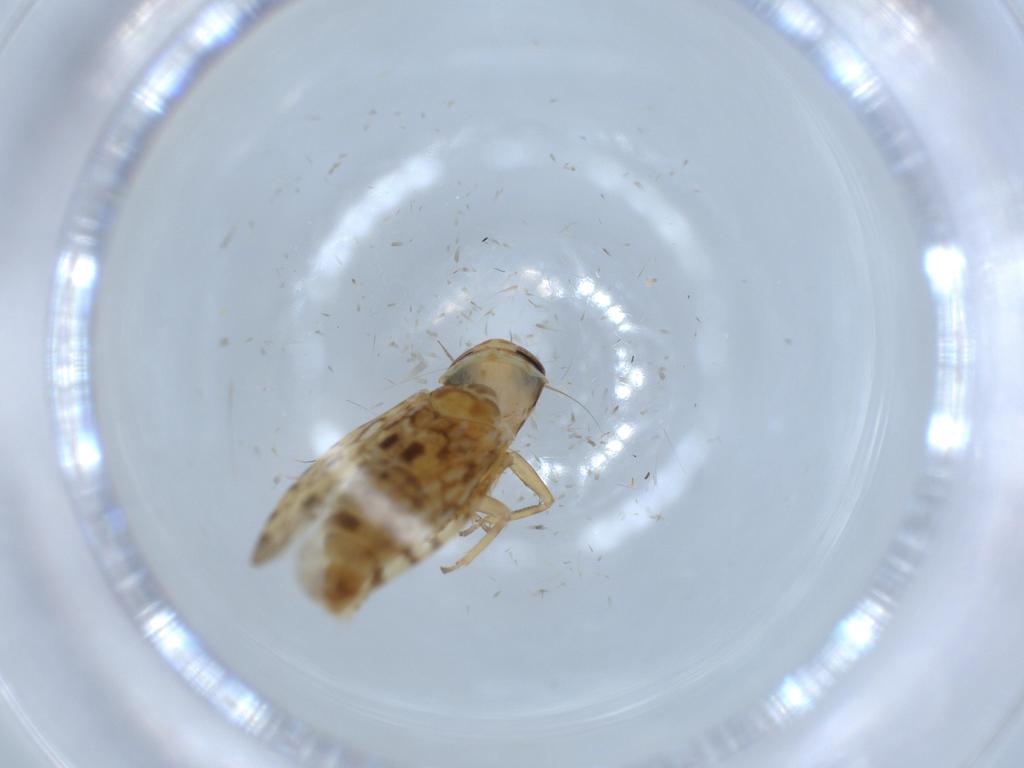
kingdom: Animalia
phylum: Arthropoda
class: Insecta
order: Hemiptera
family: Cicadellidae
